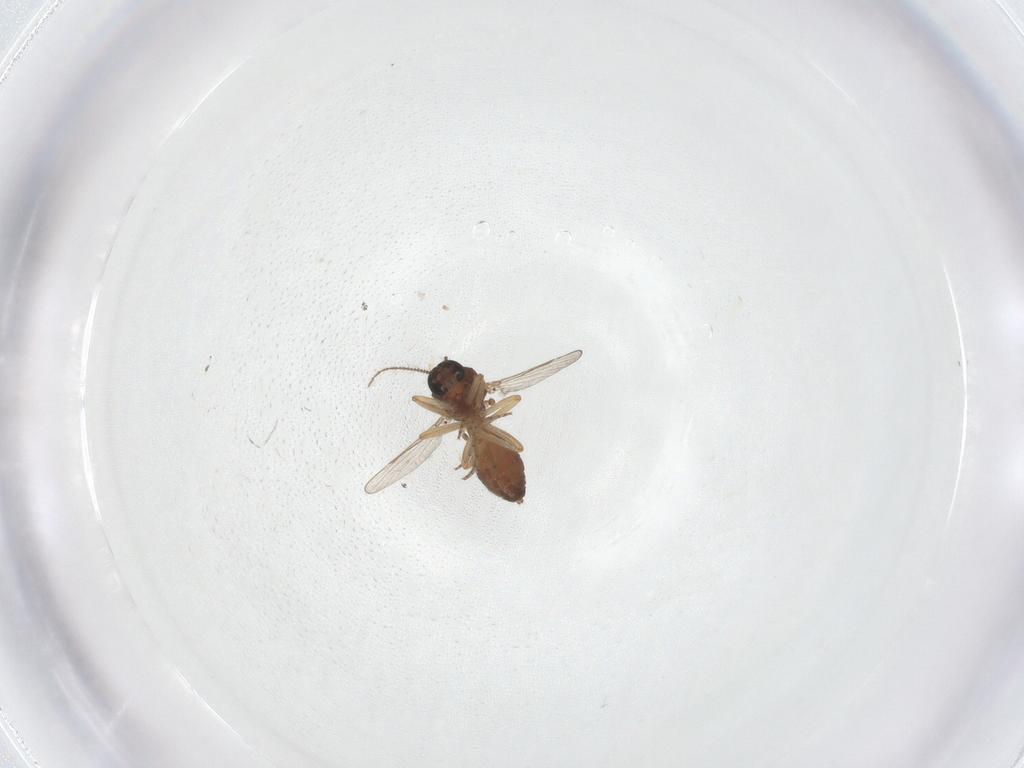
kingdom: Animalia
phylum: Arthropoda
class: Insecta
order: Diptera
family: Ceratopogonidae
